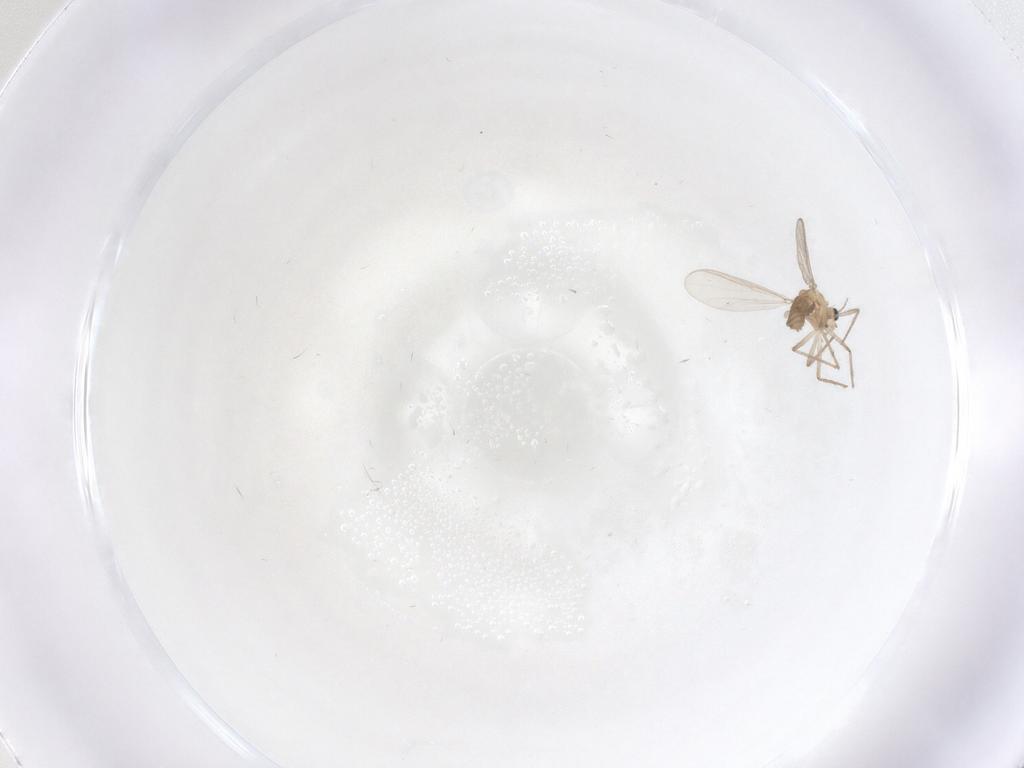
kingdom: Animalia
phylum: Arthropoda
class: Insecta
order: Diptera
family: Chironomidae
